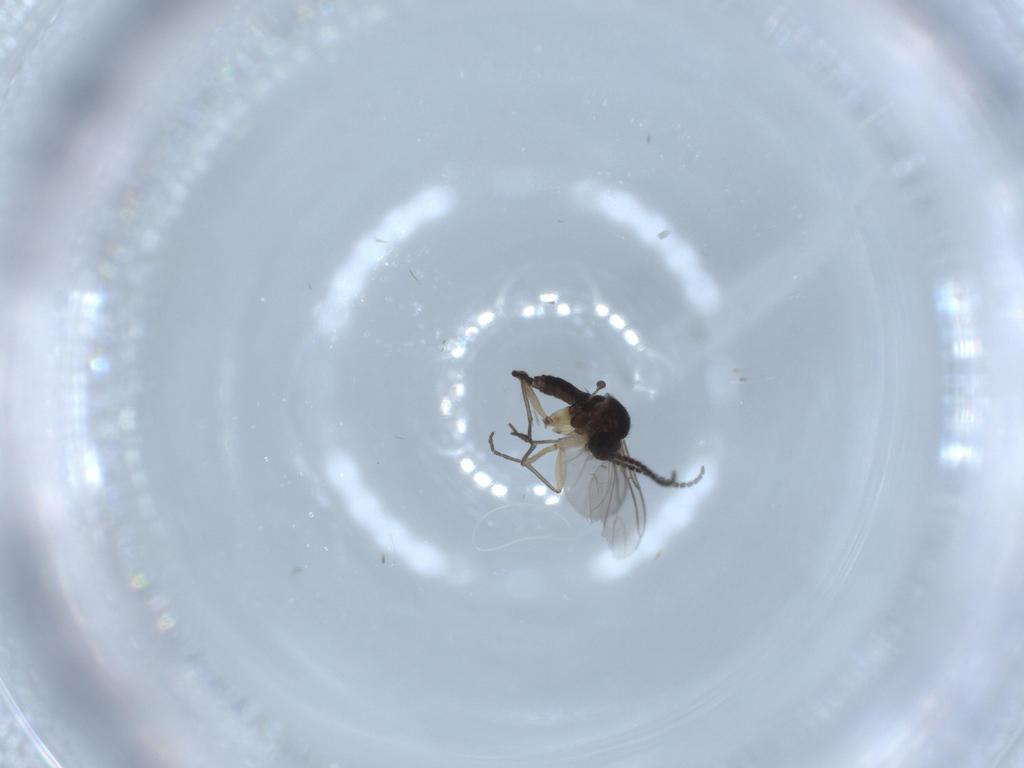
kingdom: Animalia
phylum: Arthropoda
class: Insecta
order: Diptera
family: Sciaridae
